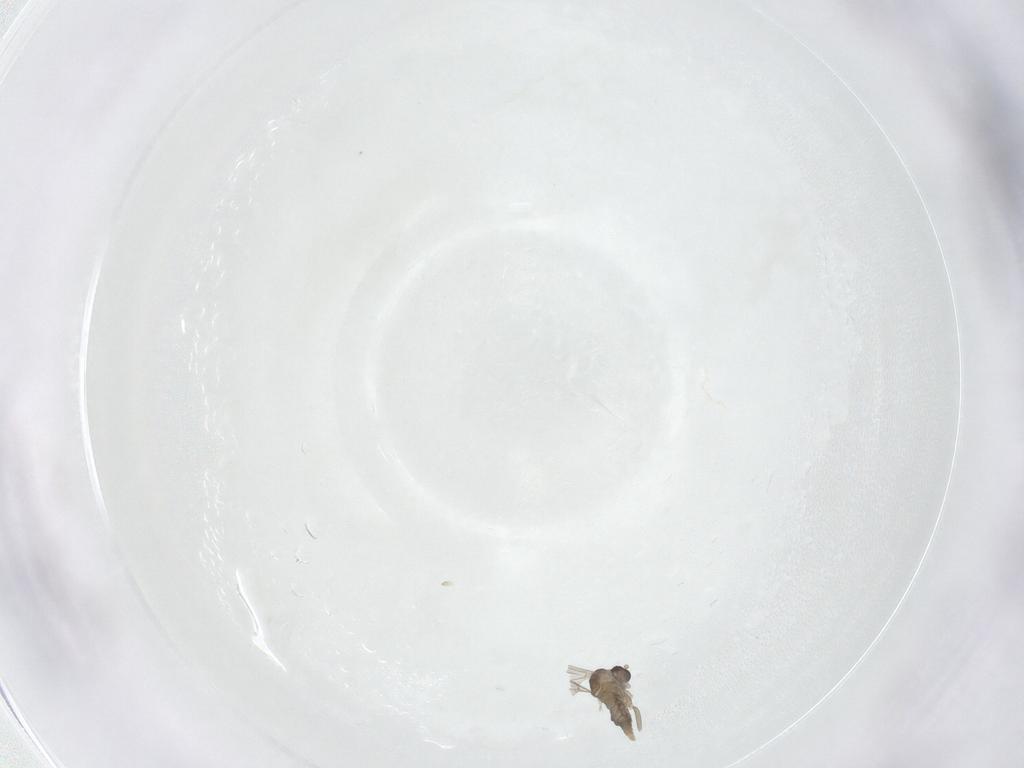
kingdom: Animalia
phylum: Arthropoda
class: Insecta
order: Diptera
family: Cecidomyiidae
